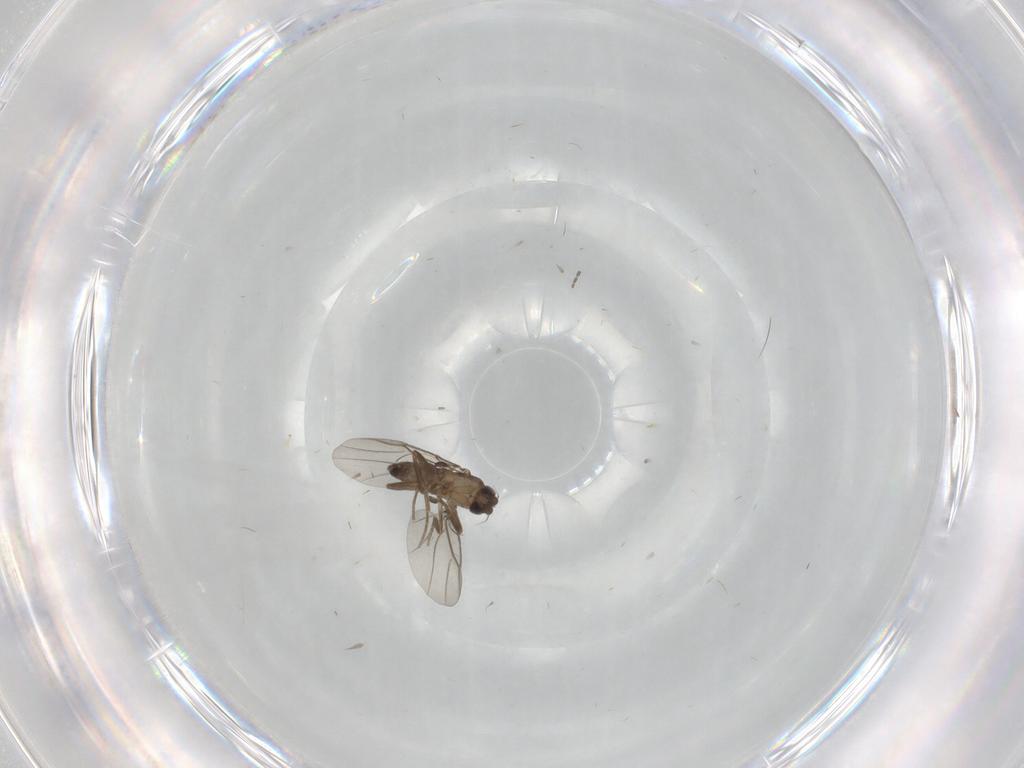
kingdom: Animalia
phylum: Arthropoda
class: Insecta
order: Diptera
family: Cecidomyiidae
